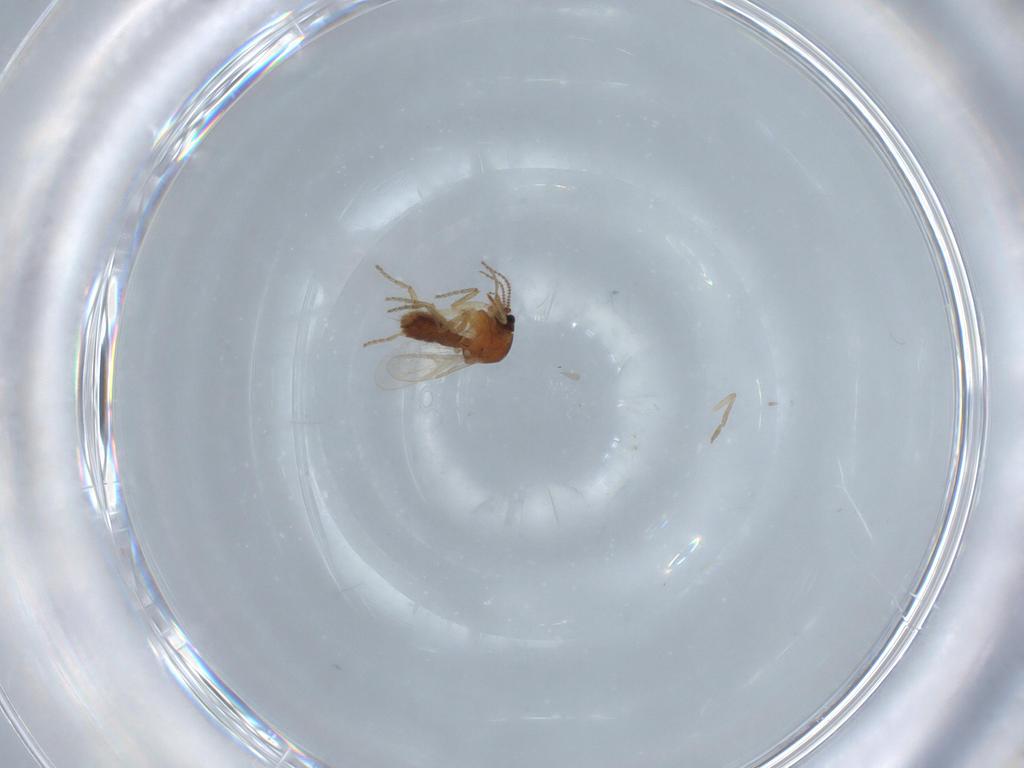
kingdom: Animalia
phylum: Arthropoda
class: Insecta
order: Diptera
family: Ceratopogonidae
